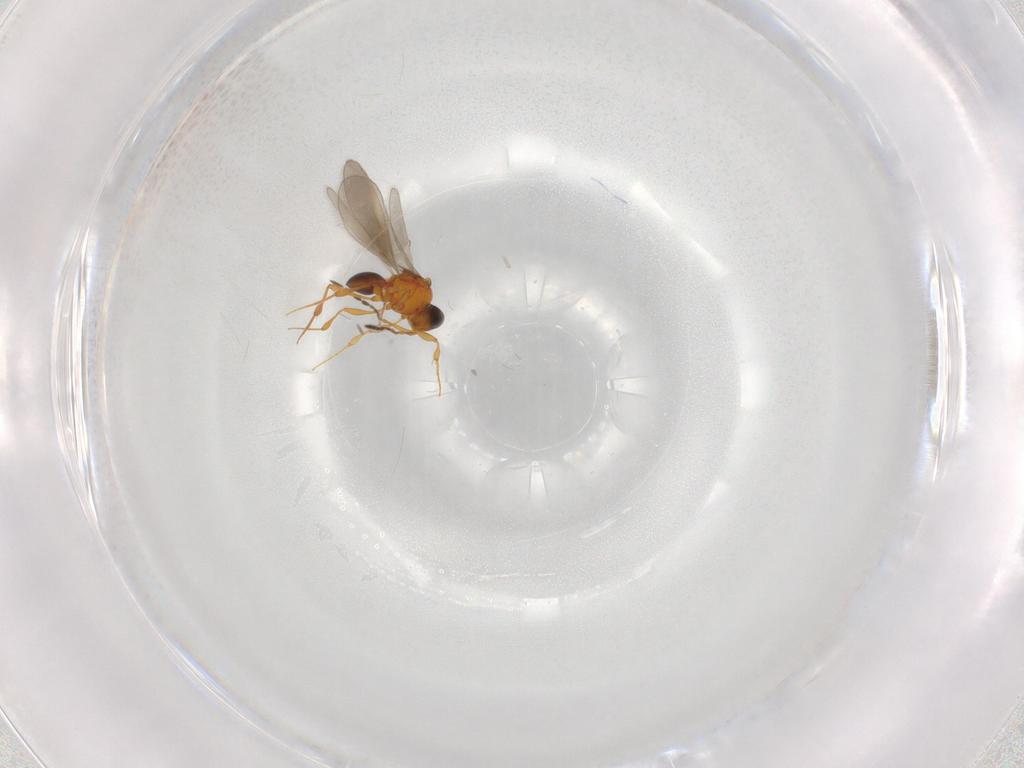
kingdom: Animalia
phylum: Arthropoda
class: Insecta
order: Hymenoptera
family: Platygastridae
